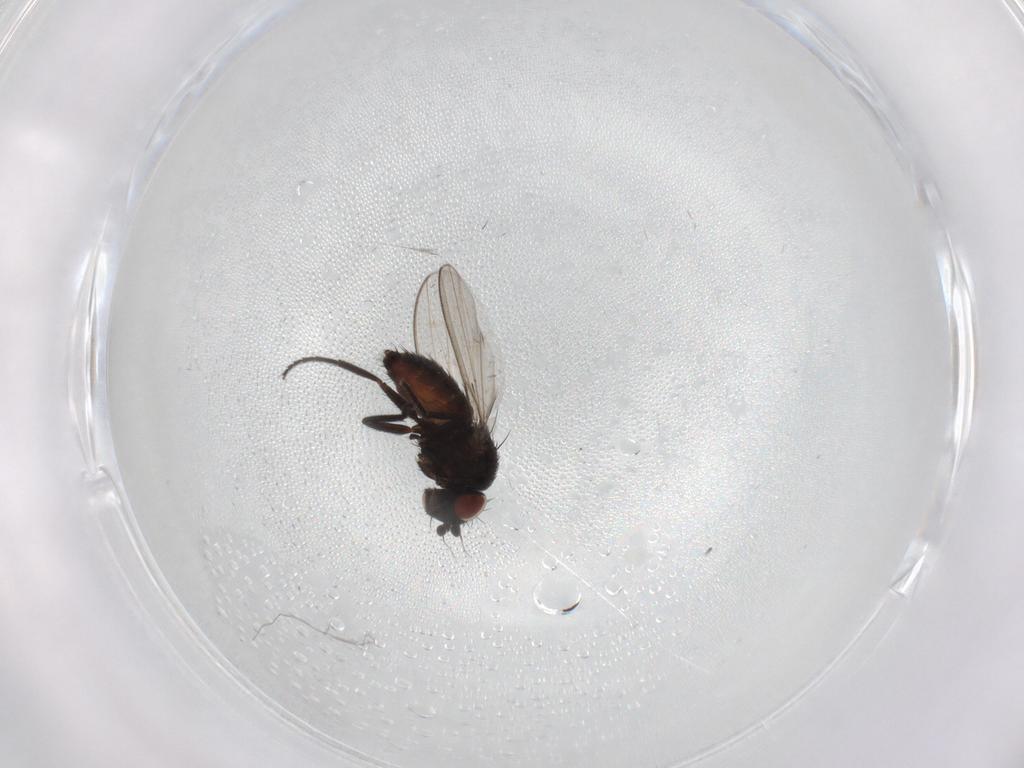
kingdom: Animalia
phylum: Arthropoda
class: Insecta
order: Diptera
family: Milichiidae
